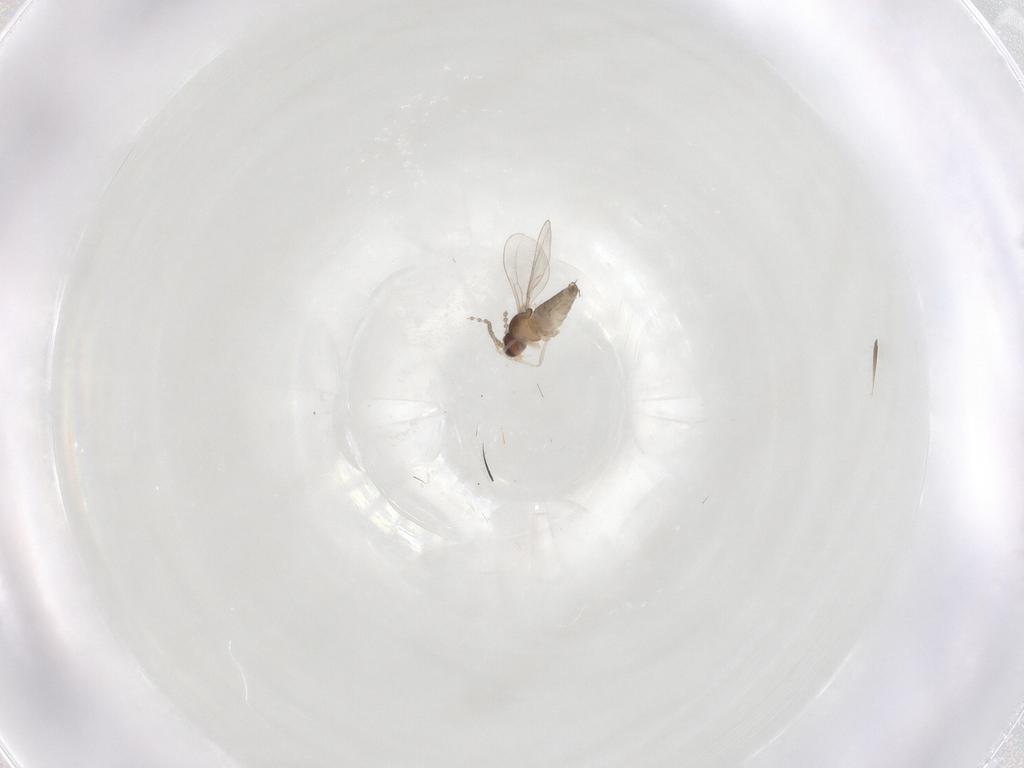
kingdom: Animalia
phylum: Arthropoda
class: Insecta
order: Diptera
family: Cecidomyiidae
